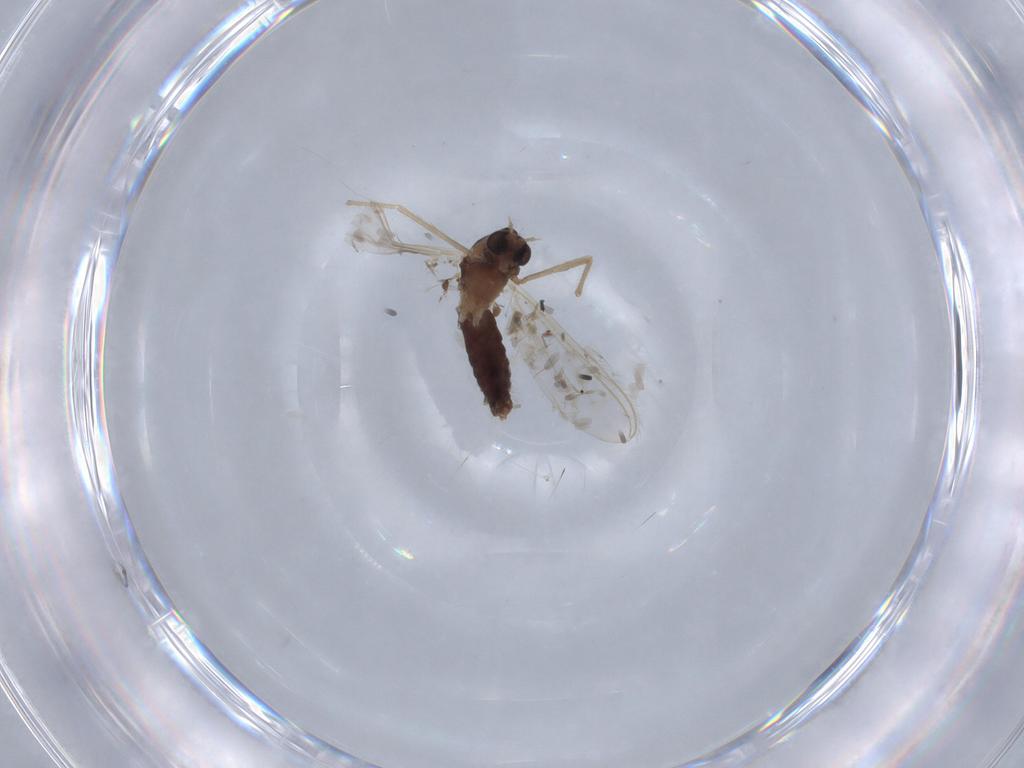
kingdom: Animalia
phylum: Arthropoda
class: Insecta
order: Diptera
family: Chironomidae
